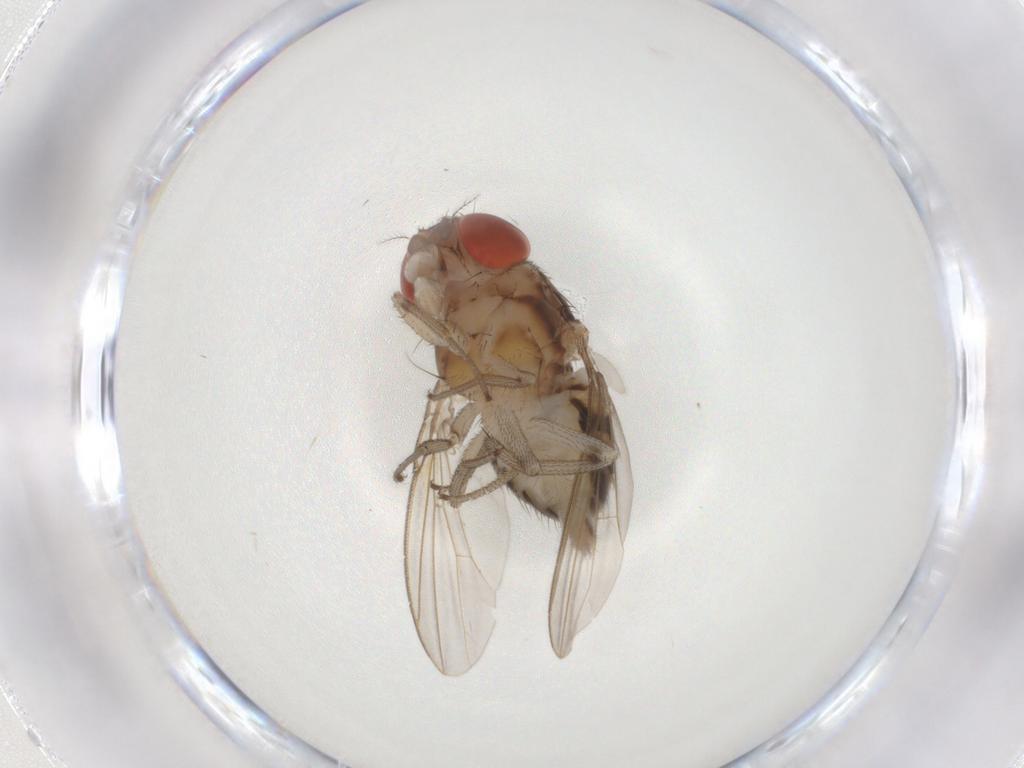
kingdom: Animalia
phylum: Arthropoda
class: Insecta
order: Diptera
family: Drosophilidae
